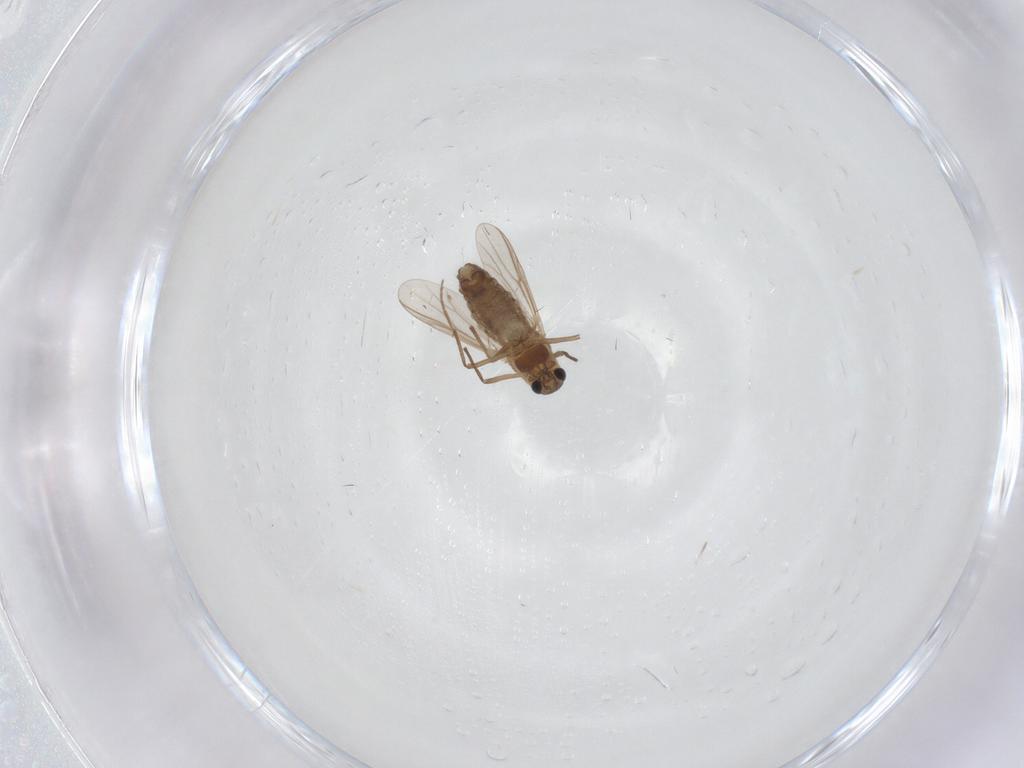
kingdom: Animalia
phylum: Arthropoda
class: Insecta
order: Diptera
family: Chironomidae
